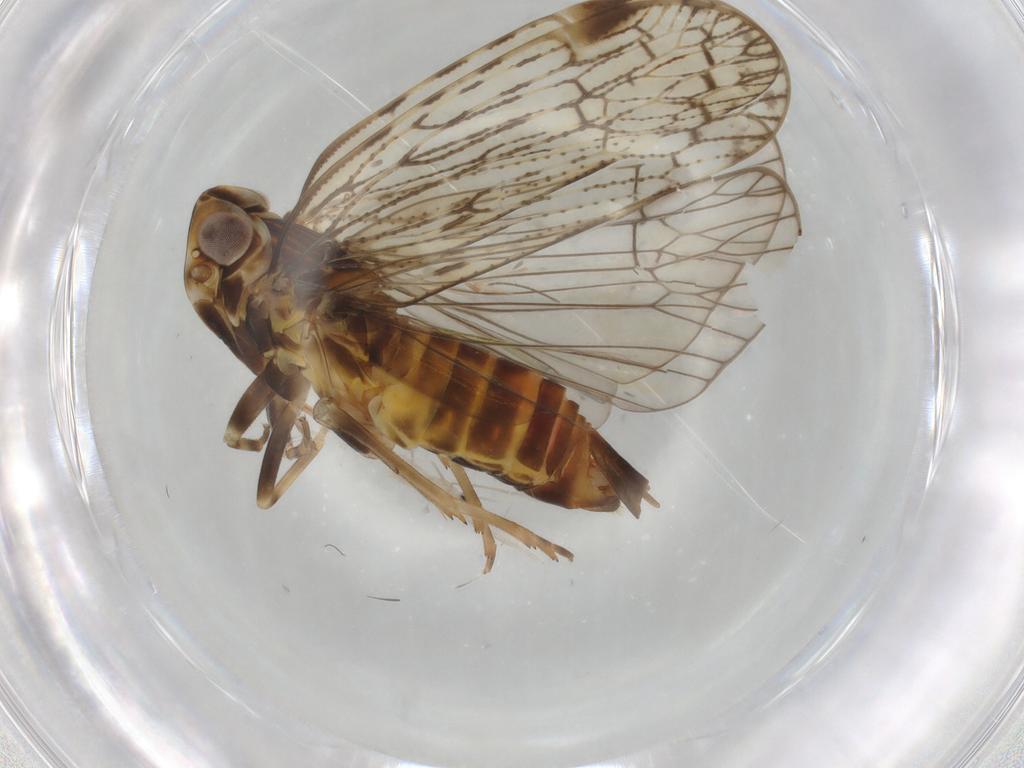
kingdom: Animalia
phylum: Arthropoda
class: Insecta
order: Hemiptera
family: Cixiidae
